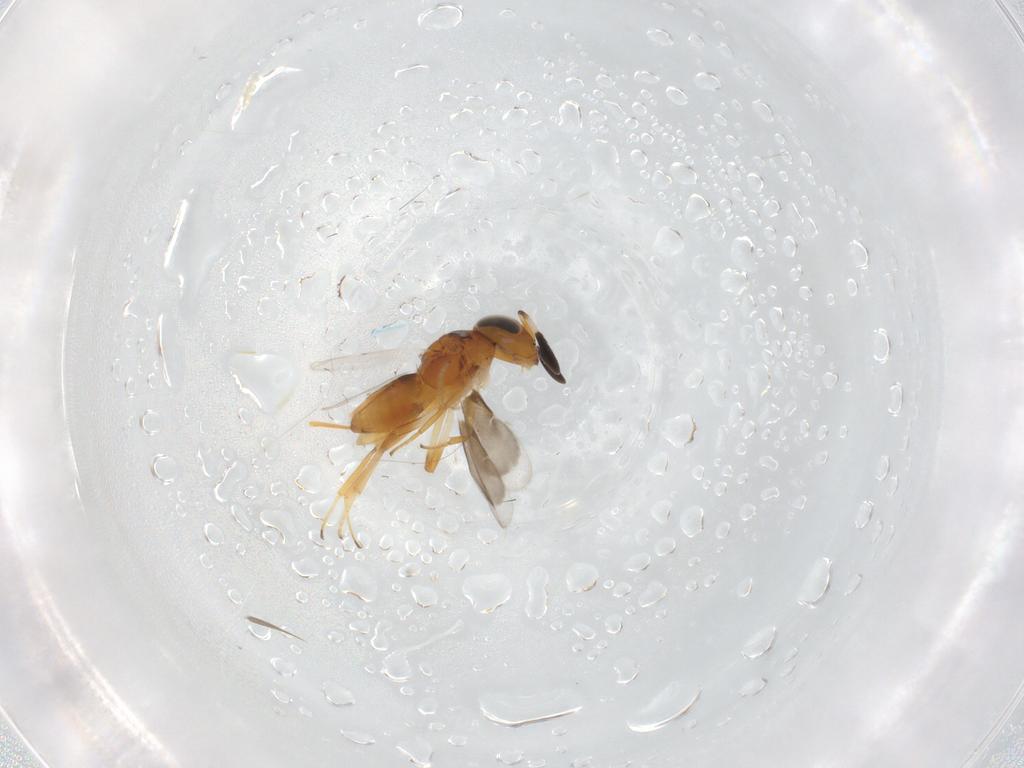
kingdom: Animalia
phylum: Arthropoda
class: Insecta
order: Hymenoptera
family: Encyrtidae
